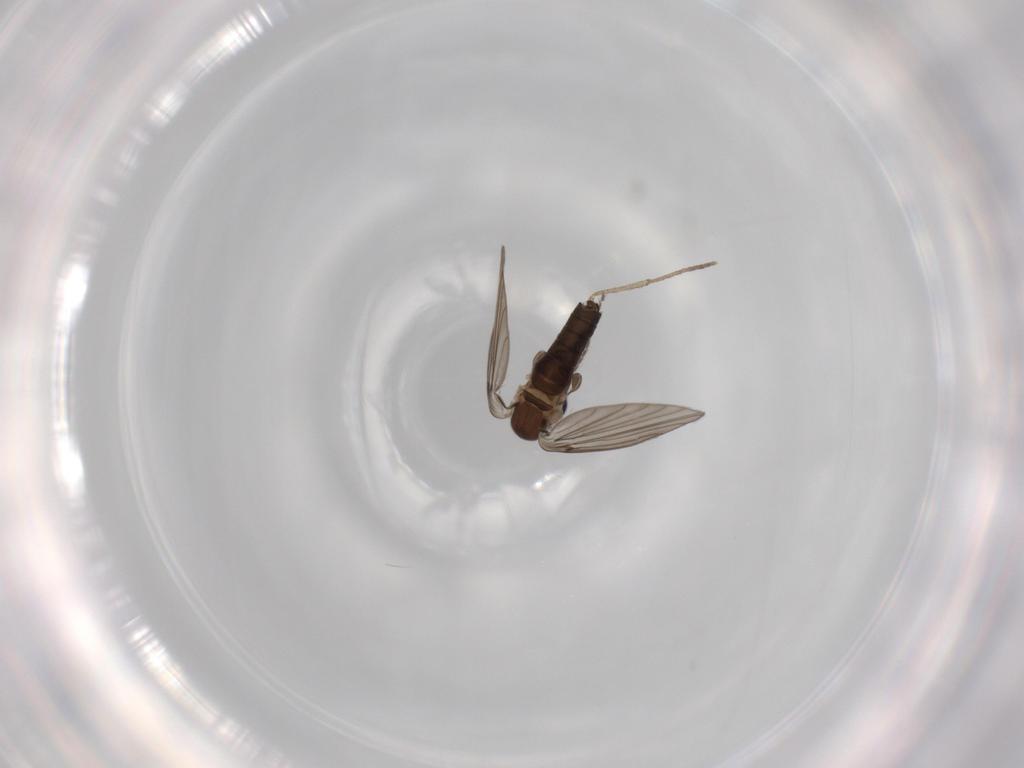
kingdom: Animalia
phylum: Arthropoda
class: Insecta
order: Diptera
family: Psychodidae
